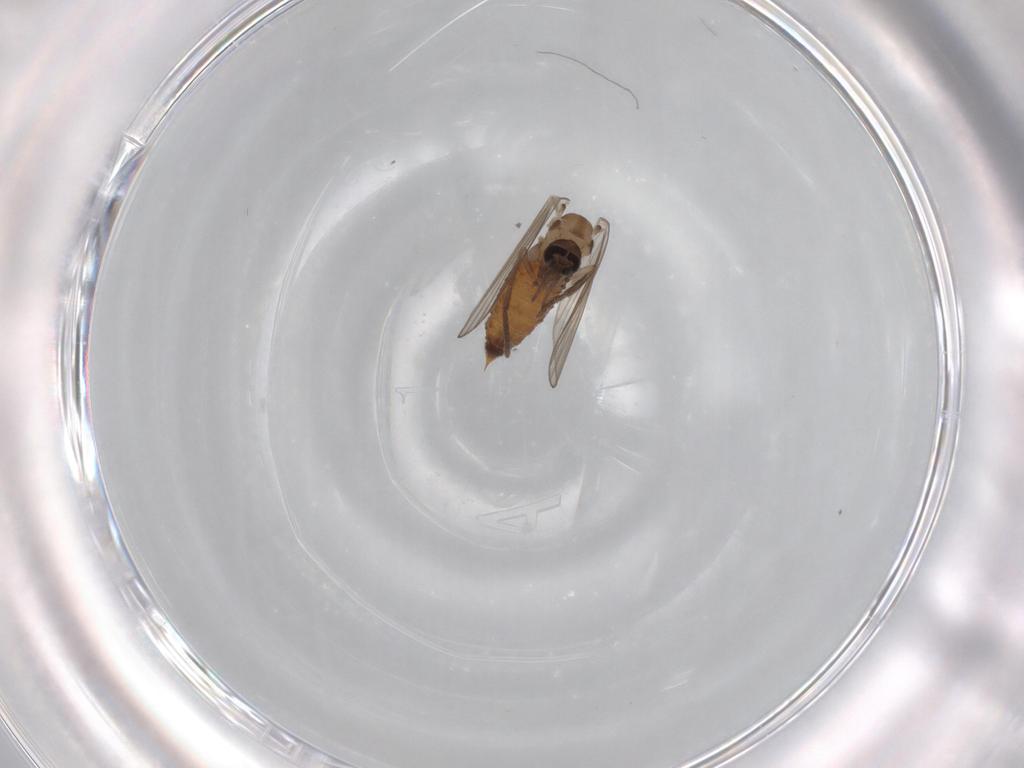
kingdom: Animalia
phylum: Arthropoda
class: Insecta
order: Diptera
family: Psychodidae
